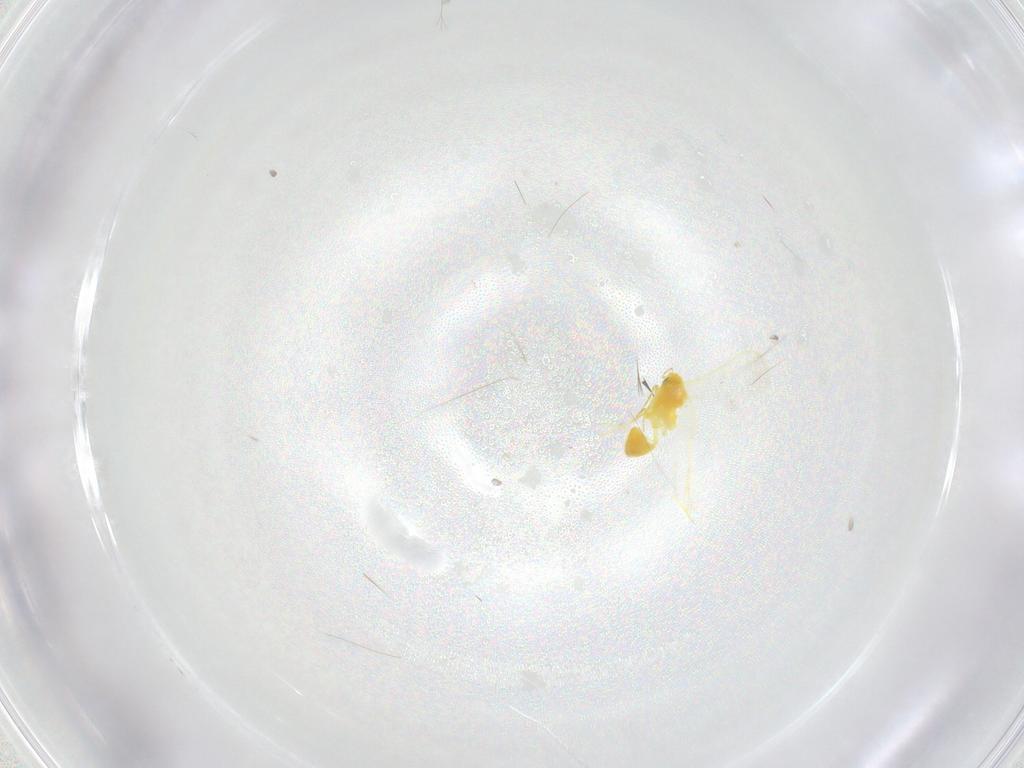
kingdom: Animalia
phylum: Arthropoda
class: Insecta
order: Hemiptera
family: Aleyrodidae
